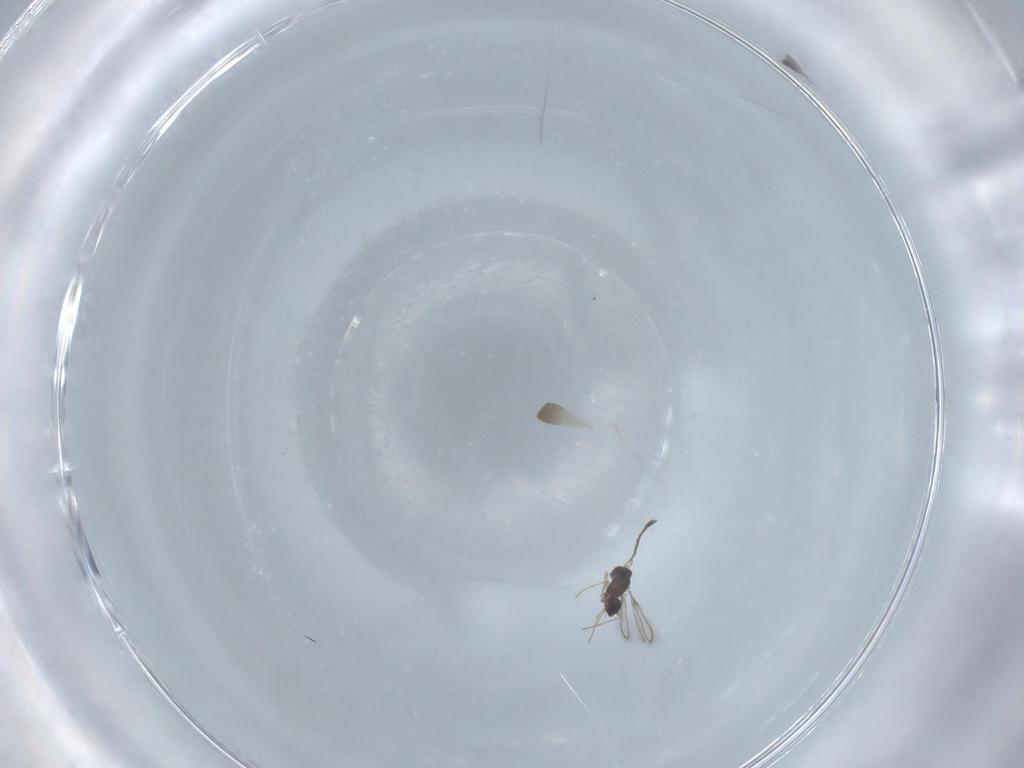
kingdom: Animalia
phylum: Arthropoda
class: Insecta
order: Hymenoptera
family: Mymaridae
